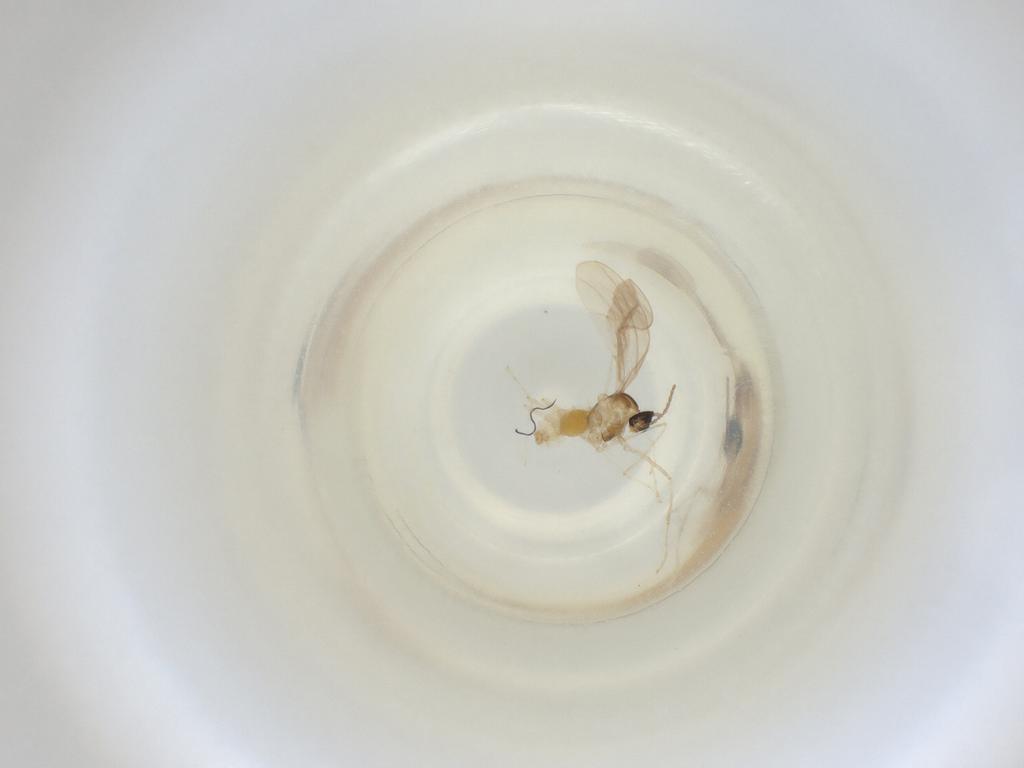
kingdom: Animalia
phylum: Arthropoda
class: Insecta
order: Diptera
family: Cecidomyiidae
